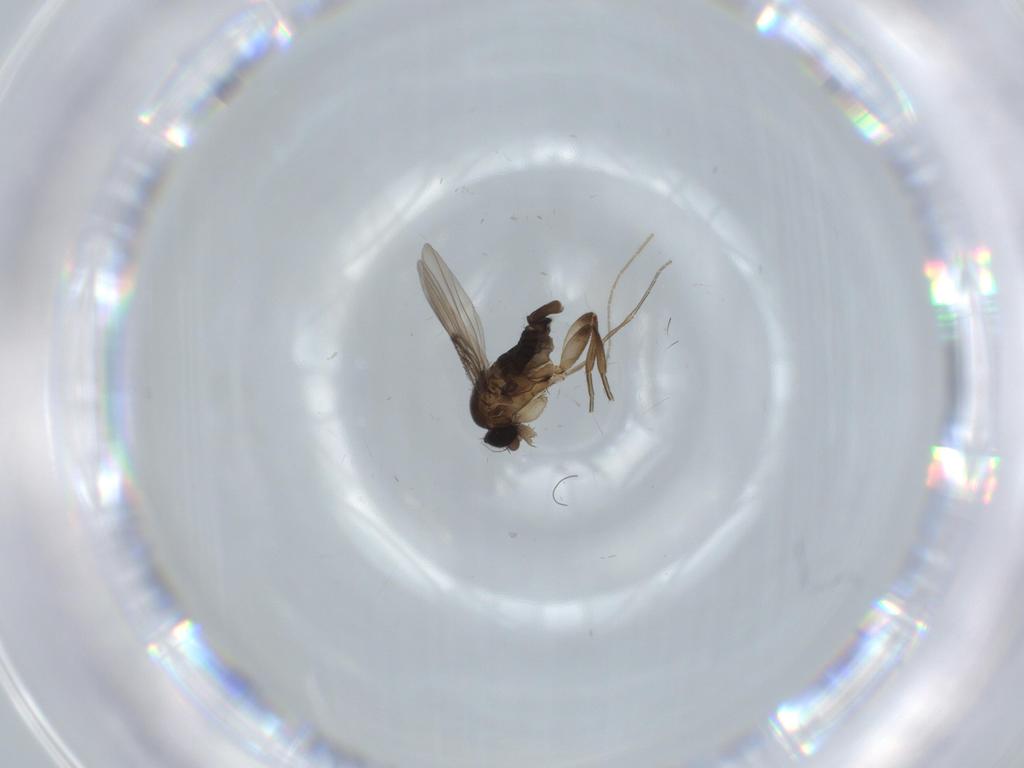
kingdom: Animalia
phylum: Arthropoda
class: Insecta
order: Diptera
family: Phoridae
